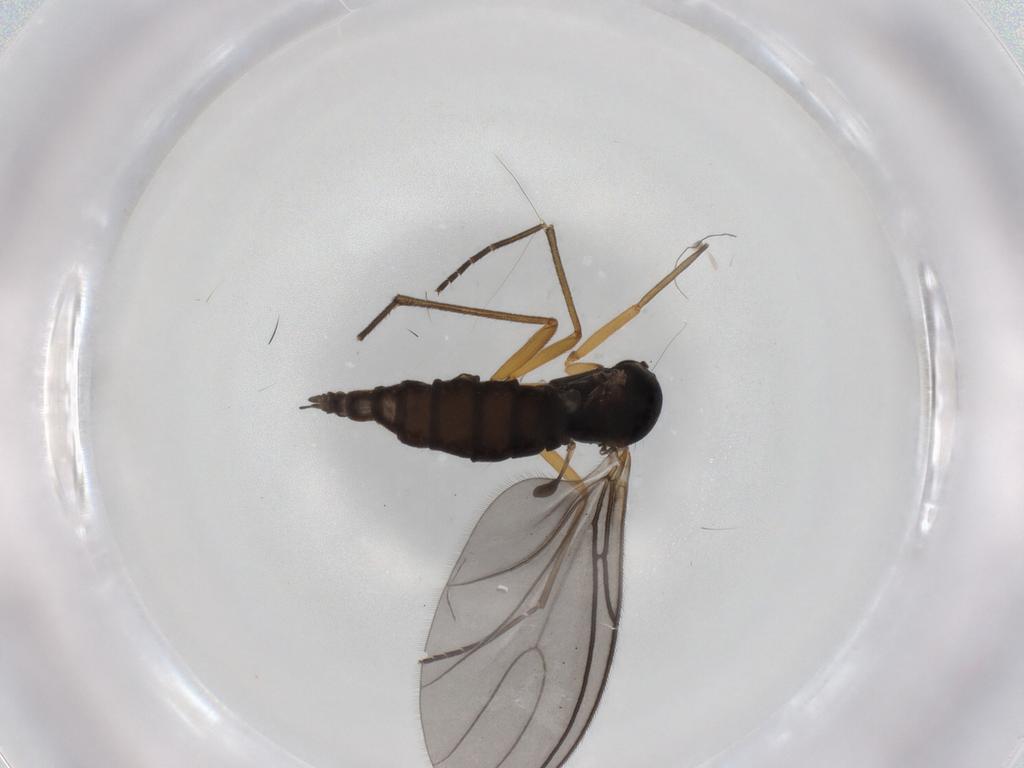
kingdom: Animalia
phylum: Arthropoda
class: Insecta
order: Diptera
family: Sciaridae
